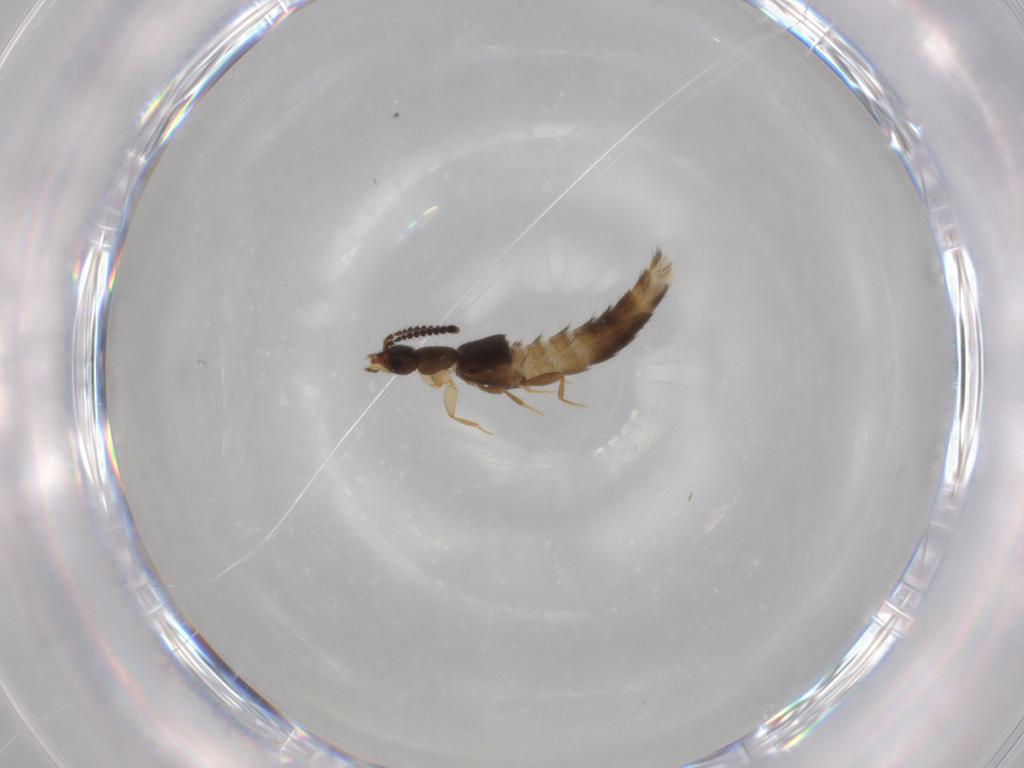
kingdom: Animalia
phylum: Arthropoda
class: Insecta
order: Coleoptera
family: Staphylinidae
